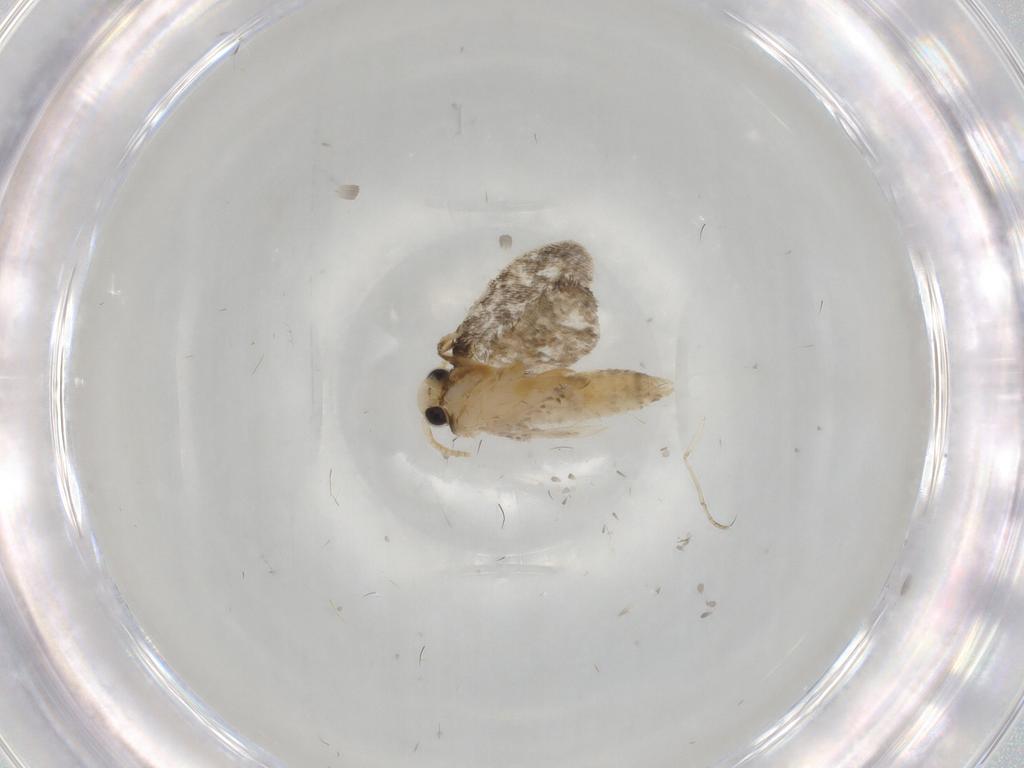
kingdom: Animalia
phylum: Arthropoda
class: Insecta
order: Lepidoptera
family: Psychidae
